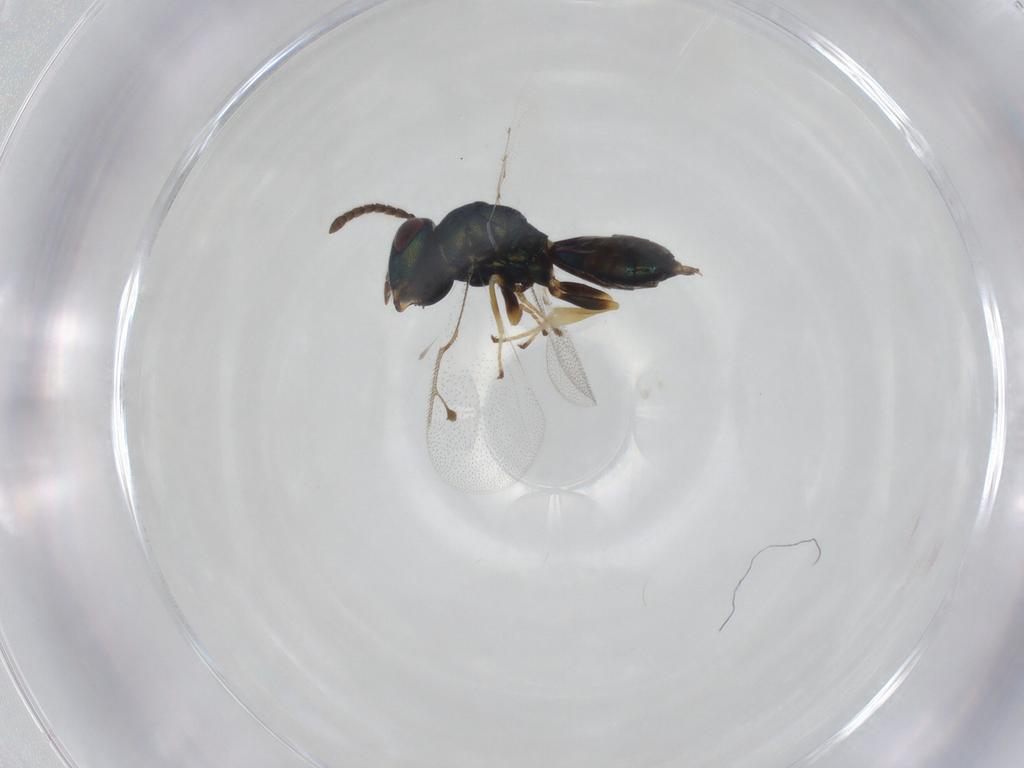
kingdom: Animalia
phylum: Arthropoda
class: Insecta
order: Hymenoptera
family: Pteromalidae
